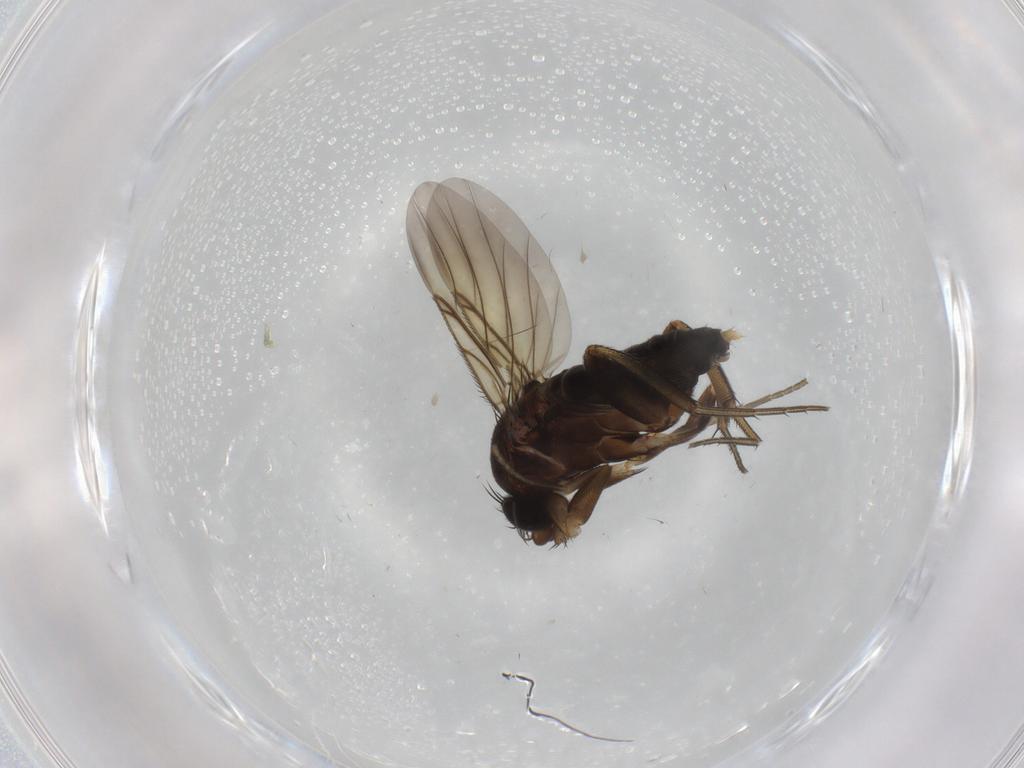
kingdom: Animalia
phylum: Arthropoda
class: Insecta
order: Diptera
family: Phoridae
